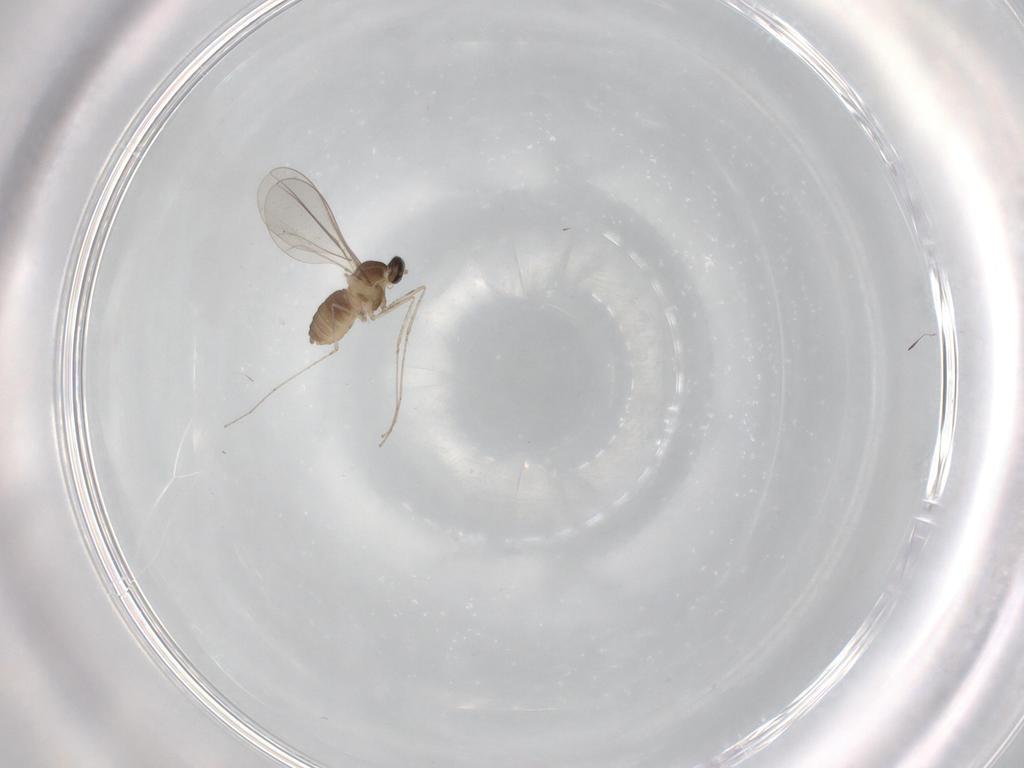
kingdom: Animalia
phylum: Arthropoda
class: Insecta
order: Diptera
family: Cecidomyiidae
